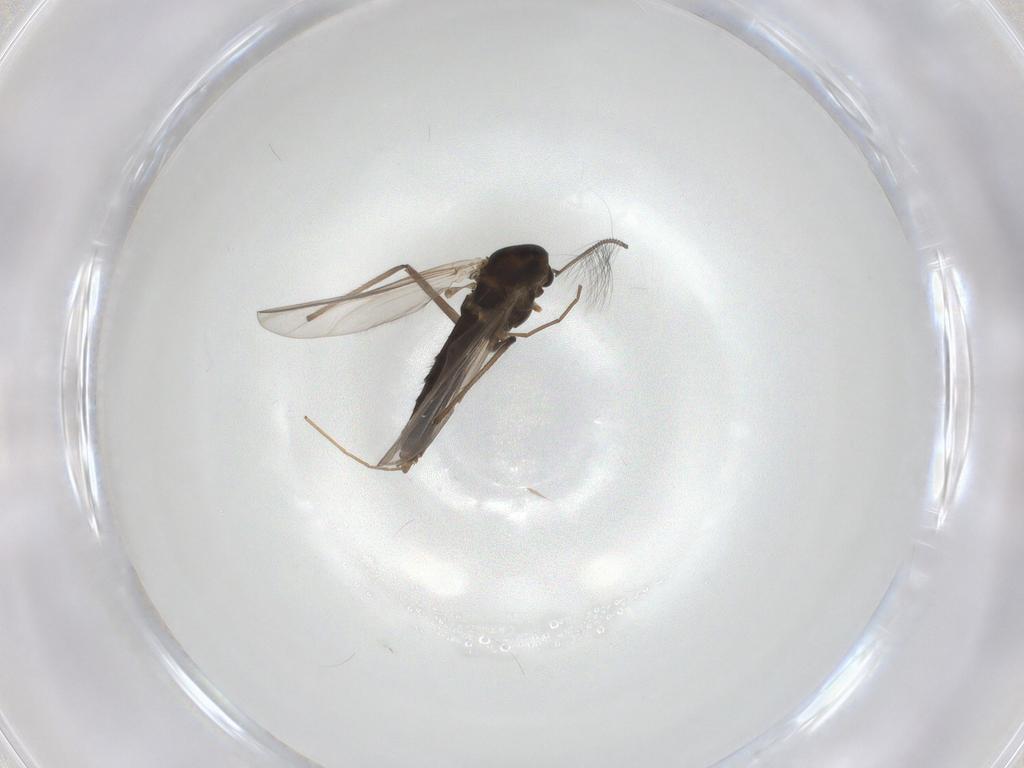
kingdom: Animalia
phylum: Arthropoda
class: Insecta
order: Diptera
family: Chironomidae
